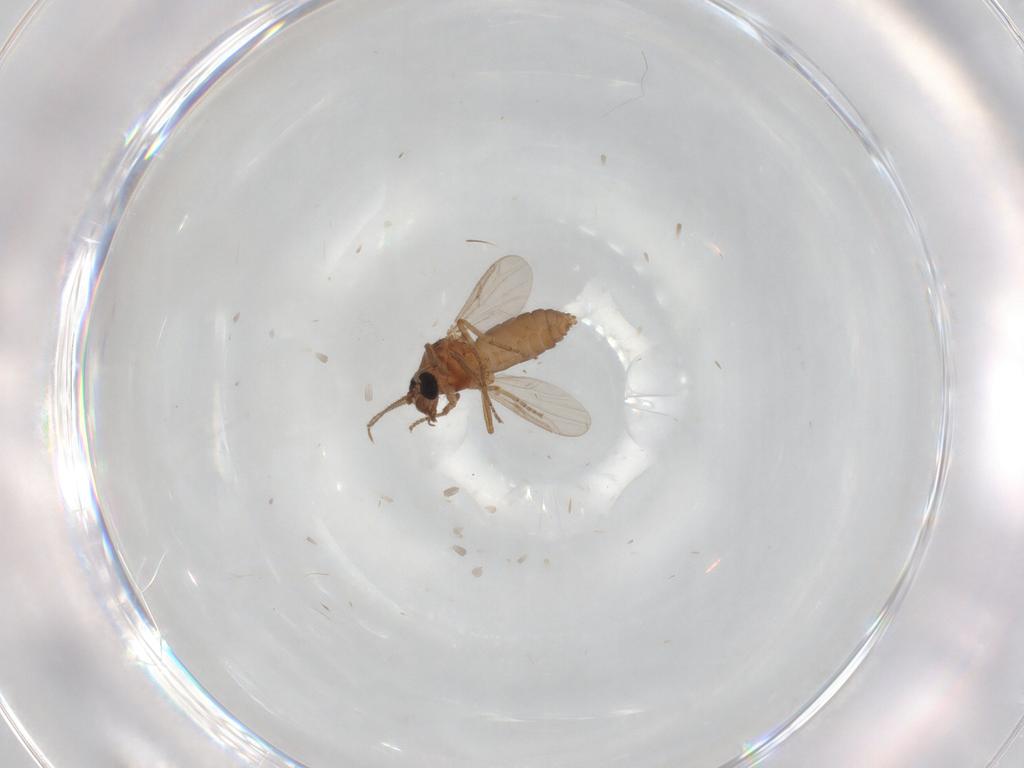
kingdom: Animalia
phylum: Arthropoda
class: Insecta
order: Diptera
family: Ceratopogonidae
